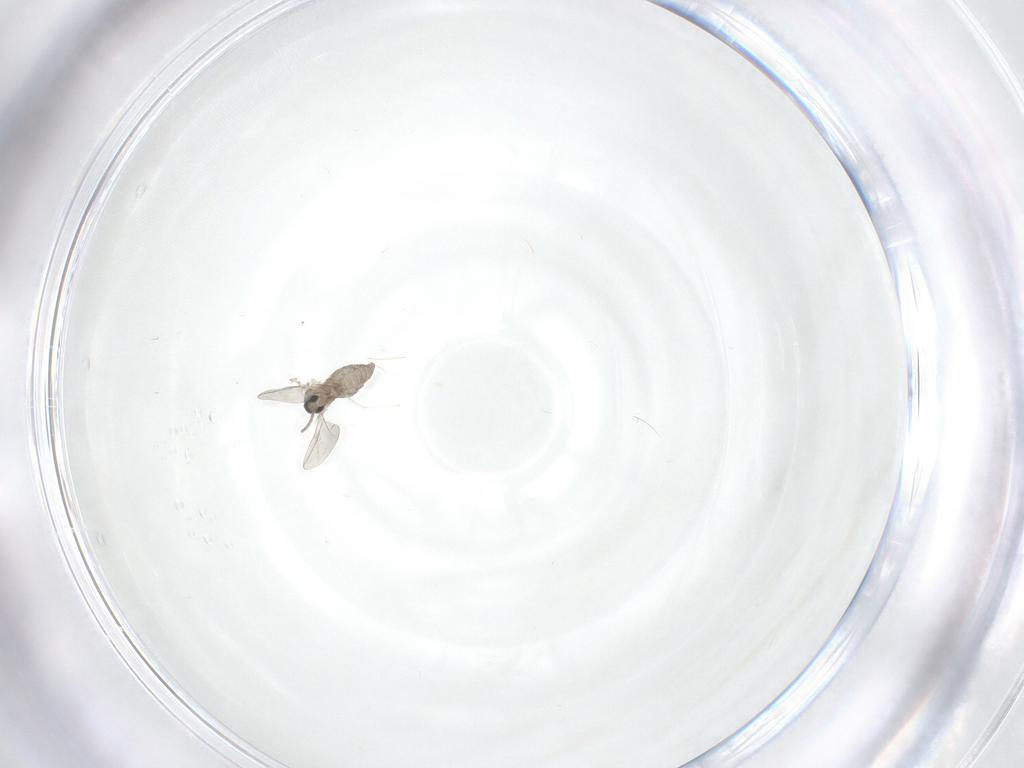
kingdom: Animalia
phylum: Arthropoda
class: Insecta
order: Diptera
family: Cecidomyiidae
